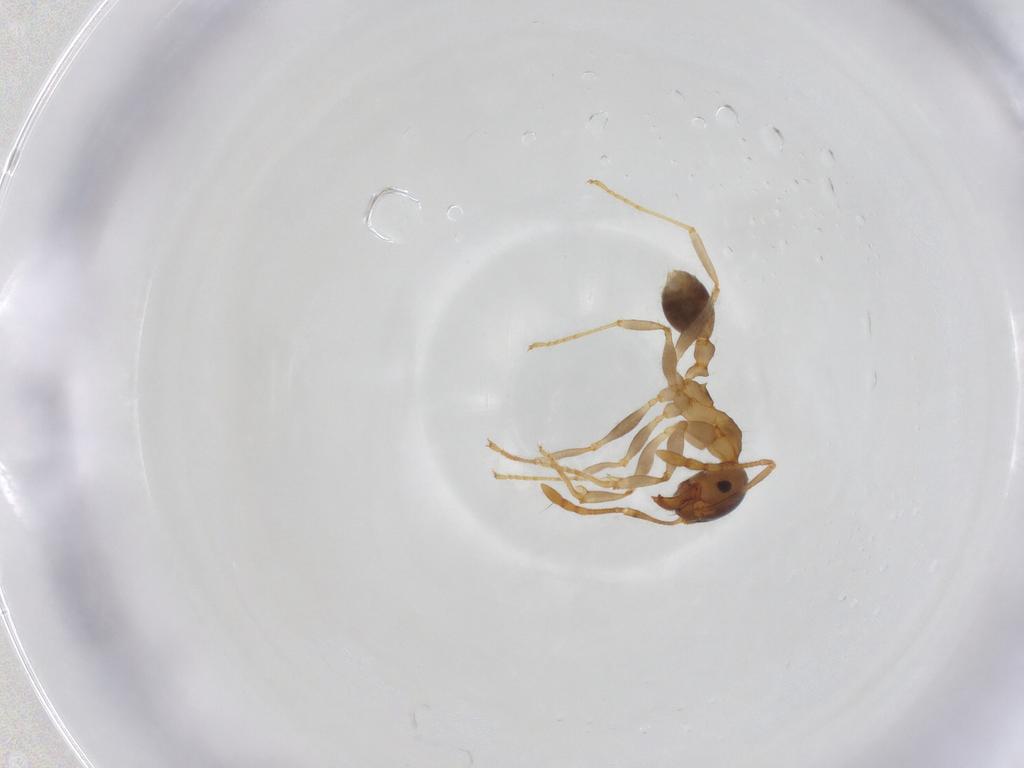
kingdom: Animalia
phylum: Arthropoda
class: Insecta
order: Hymenoptera
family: Formicidae
